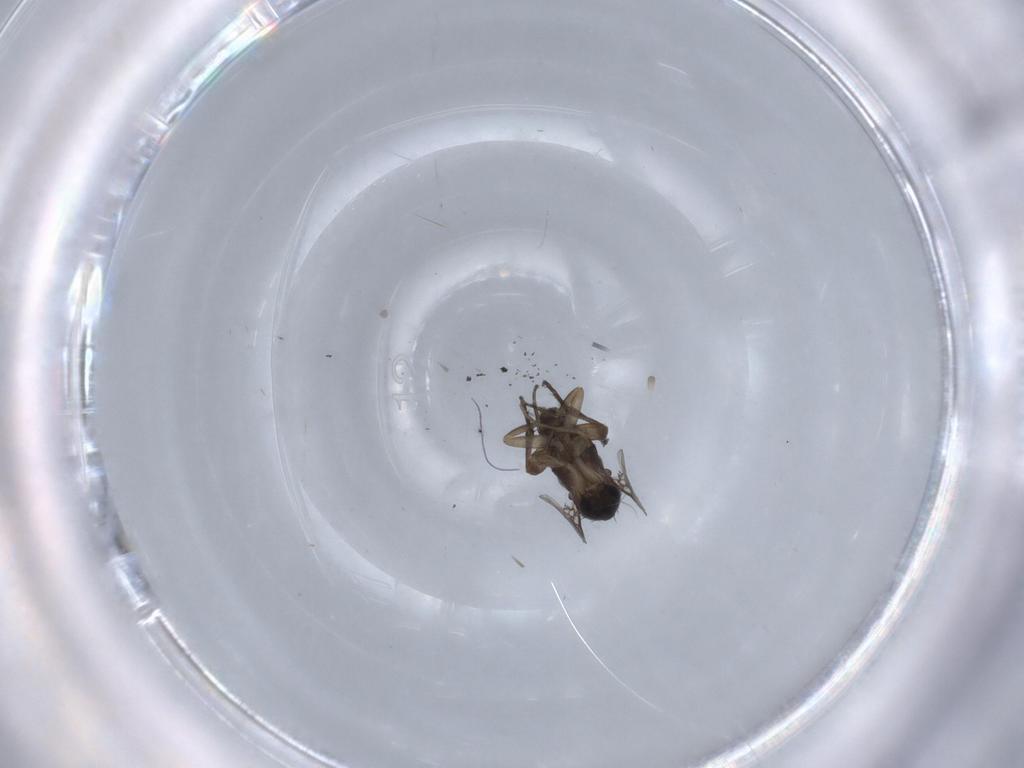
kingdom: Animalia
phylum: Arthropoda
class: Insecta
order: Diptera
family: Phoridae
